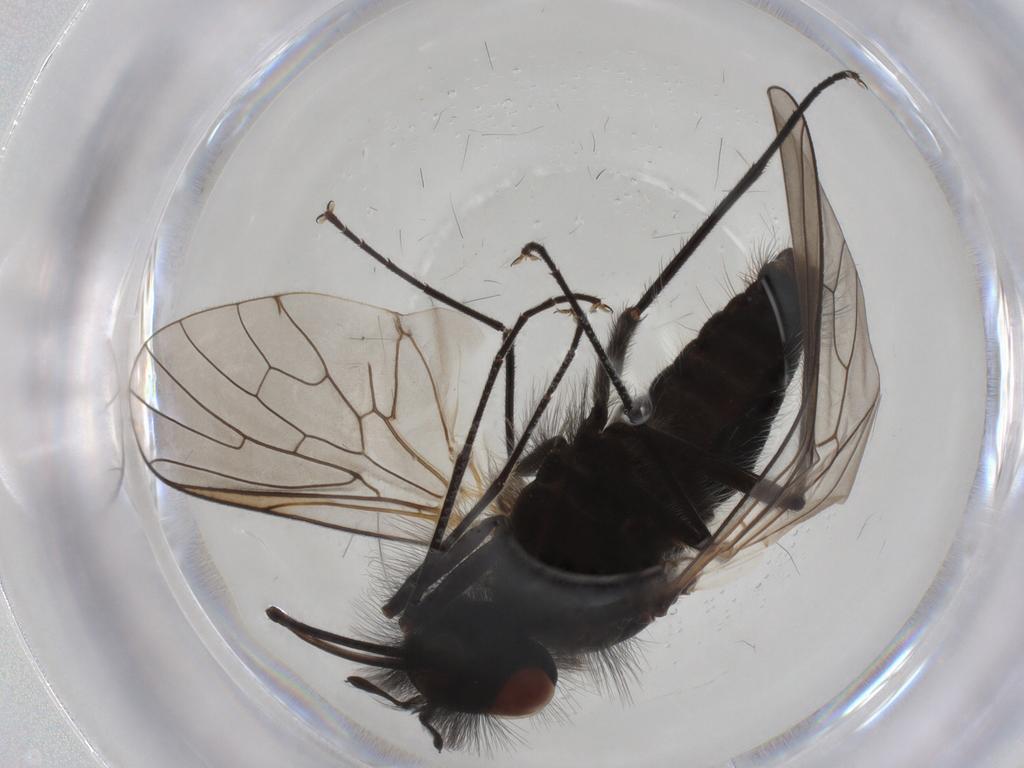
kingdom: Animalia
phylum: Arthropoda
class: Insecta
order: Diptera
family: Bombyliidae
